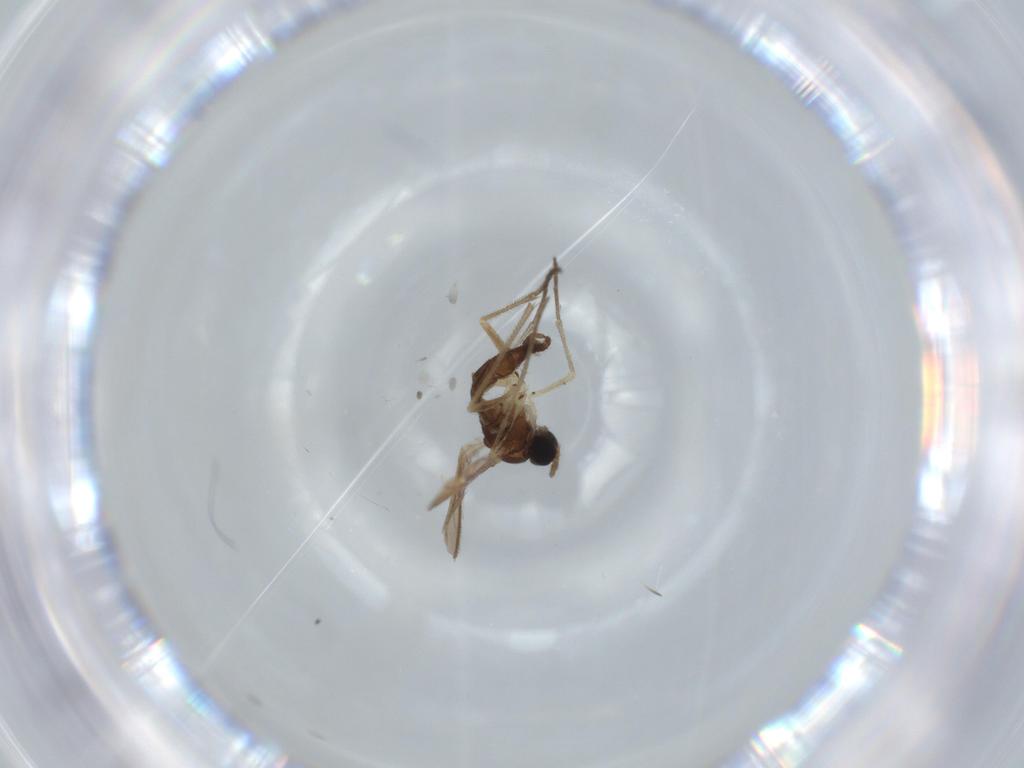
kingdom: Animalia
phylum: Arthropoda
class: Insecta
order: Diptera
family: Sciaridae
